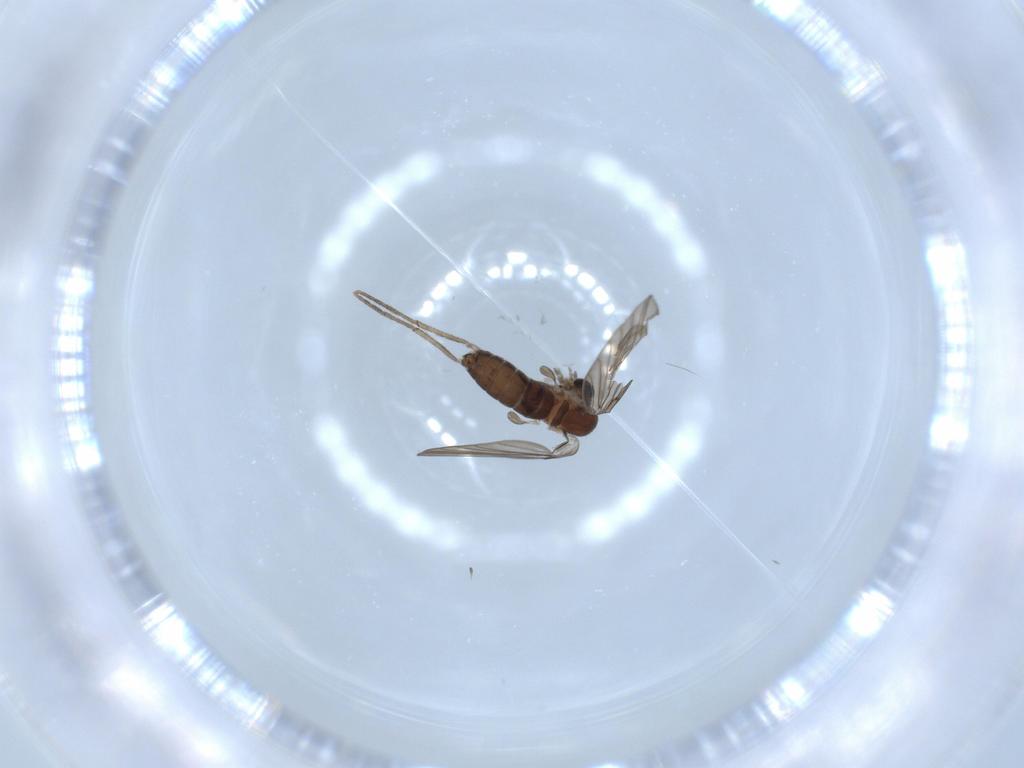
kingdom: Animalia
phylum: Arthropoda
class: Insecta
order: Diptera
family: Psychodidae
